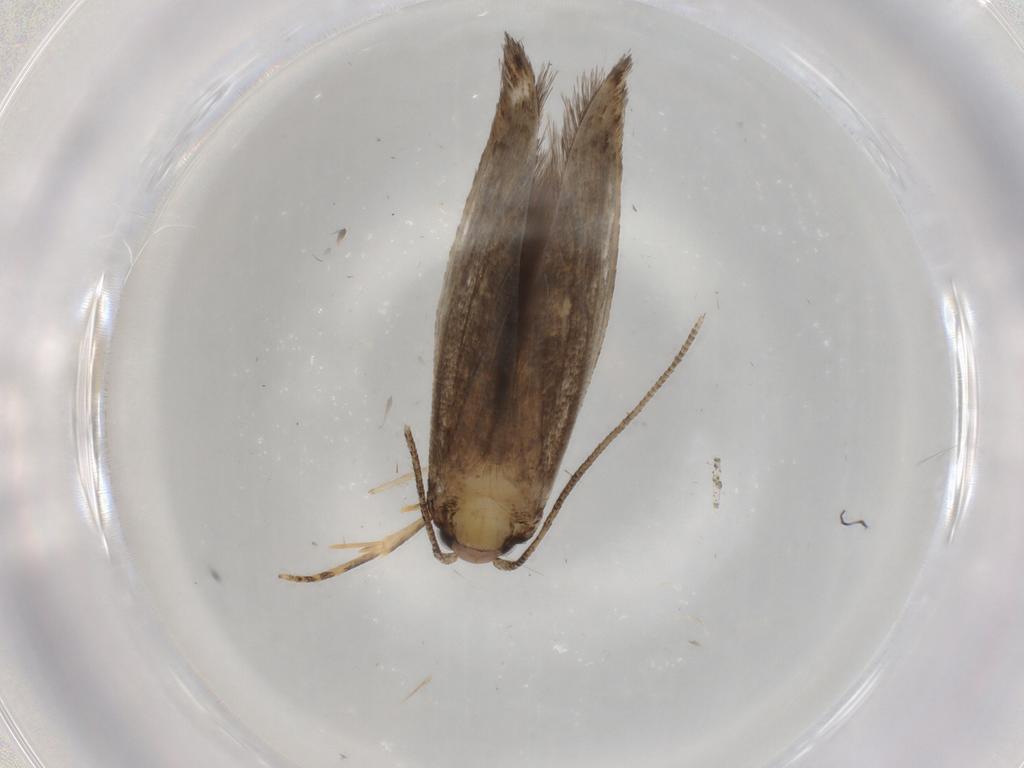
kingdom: Animalia
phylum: Arthropoda
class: Insecta
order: Lepidoptera
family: Tineidae
